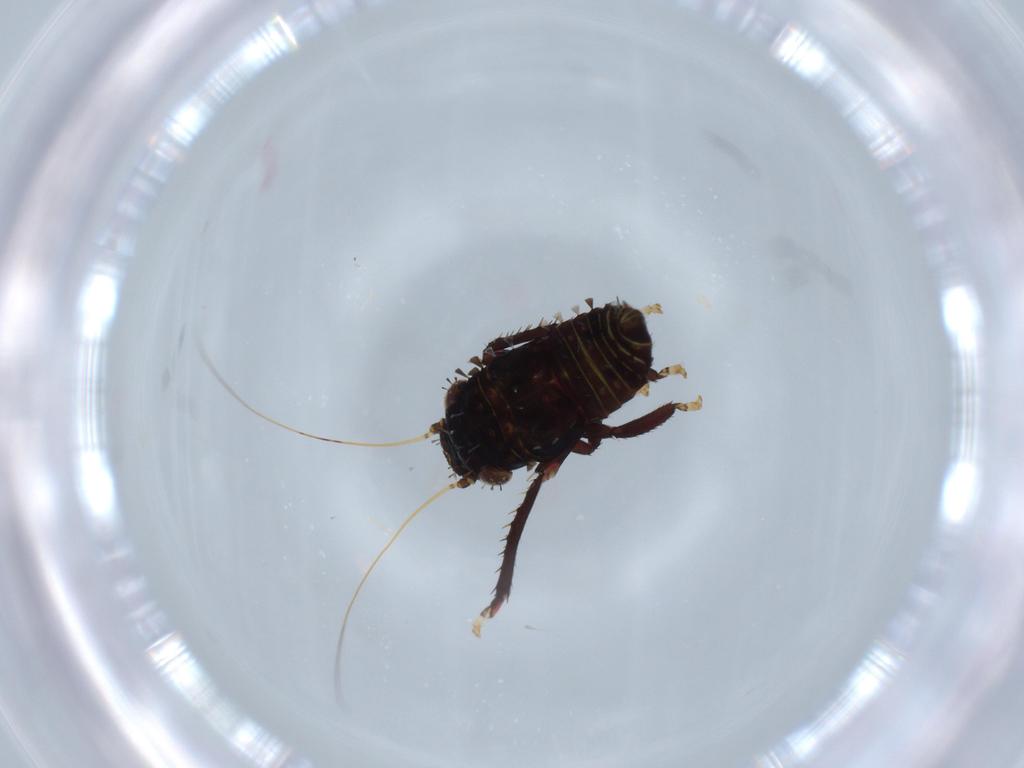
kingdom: Animalia
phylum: Arthropoda
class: Insecta
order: Hemiptera
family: Cicadellidae
